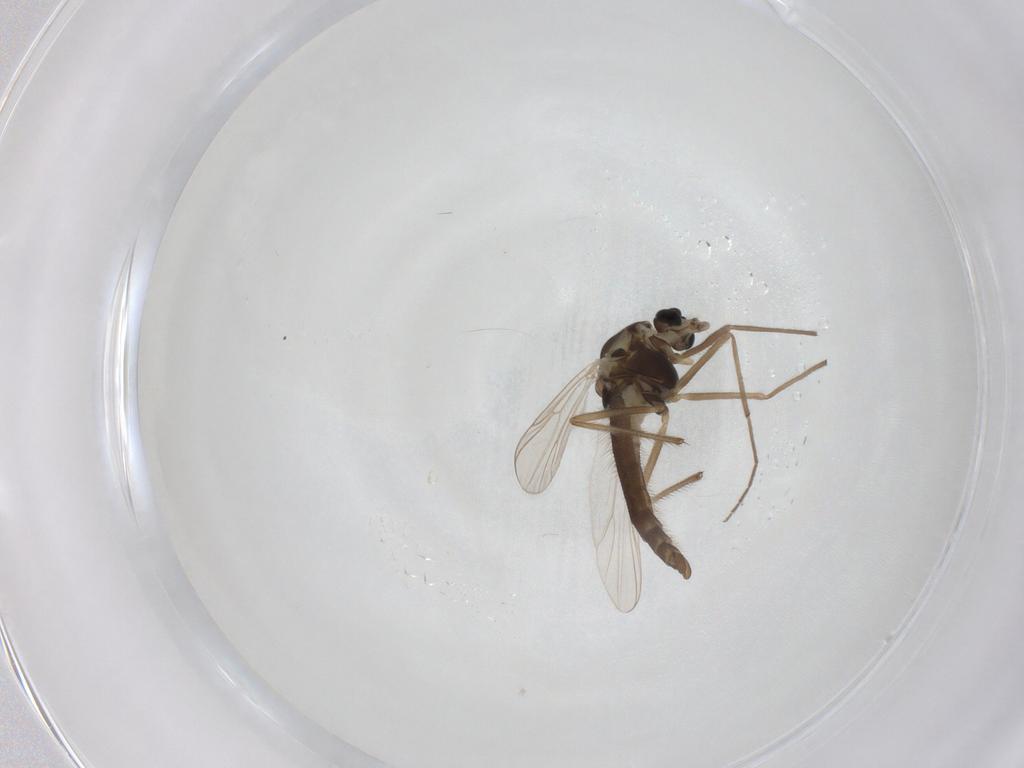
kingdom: Animalia
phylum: Arthropoda
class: Insecta
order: Diptera
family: Chironomidae
